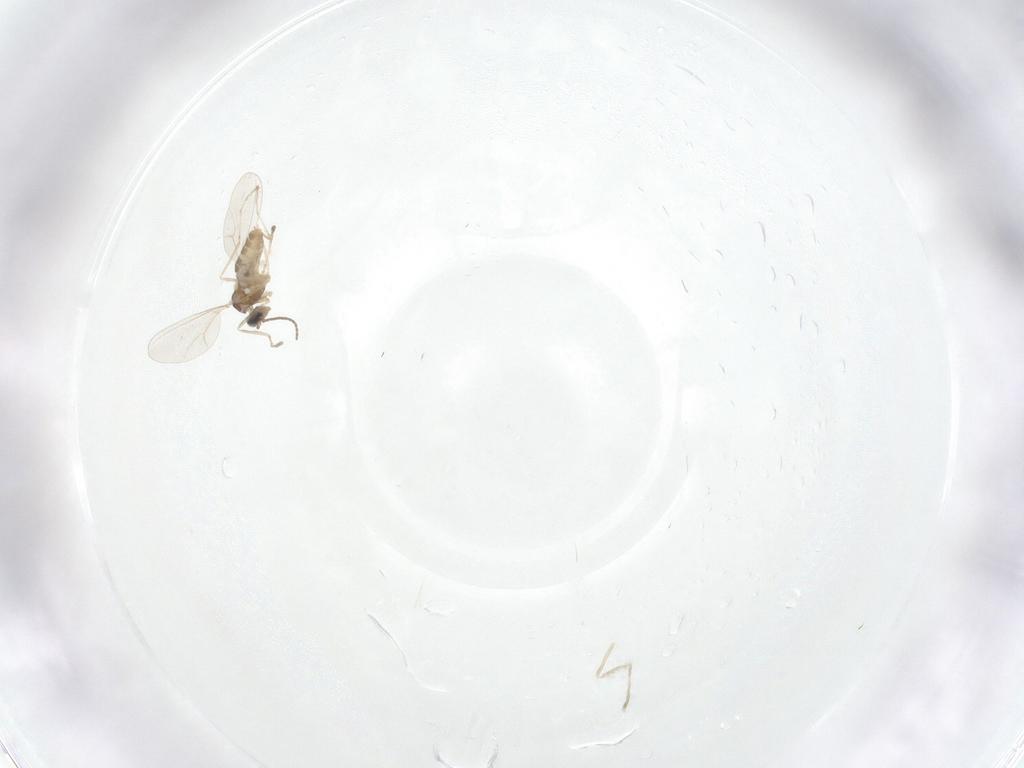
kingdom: Animalia
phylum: Arthropoda
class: Insecta
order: Diptera
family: Cecidomyiidae
